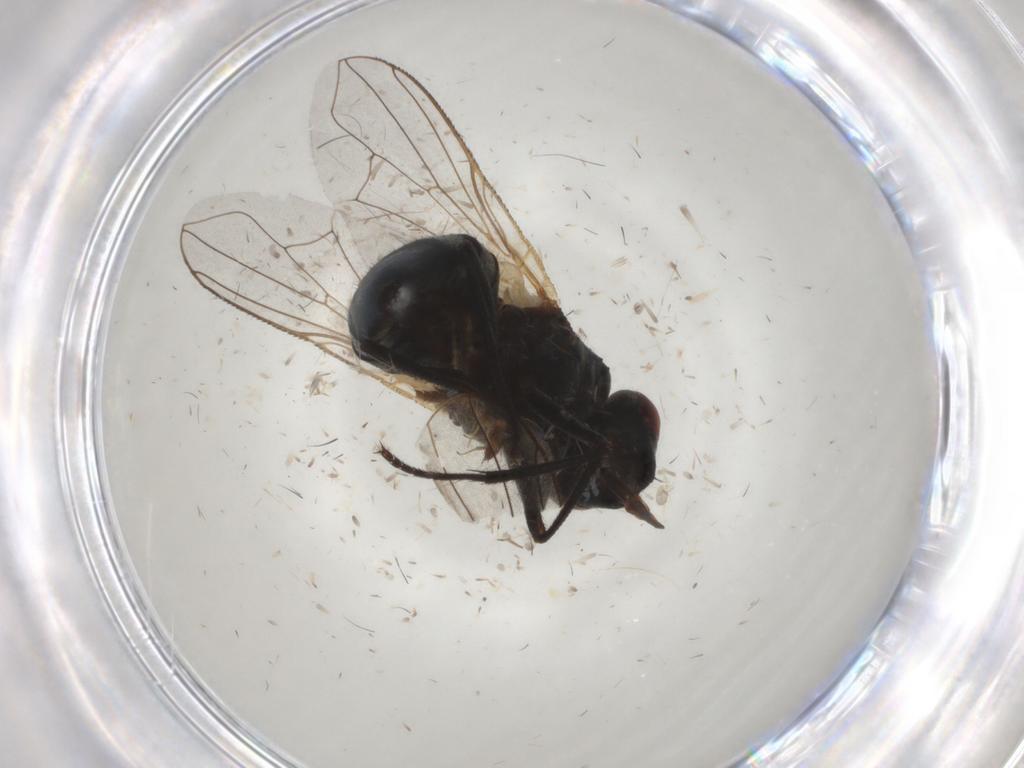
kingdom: Animalia
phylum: Arthropoda
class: Insecta
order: Diptera
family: Muscidae
